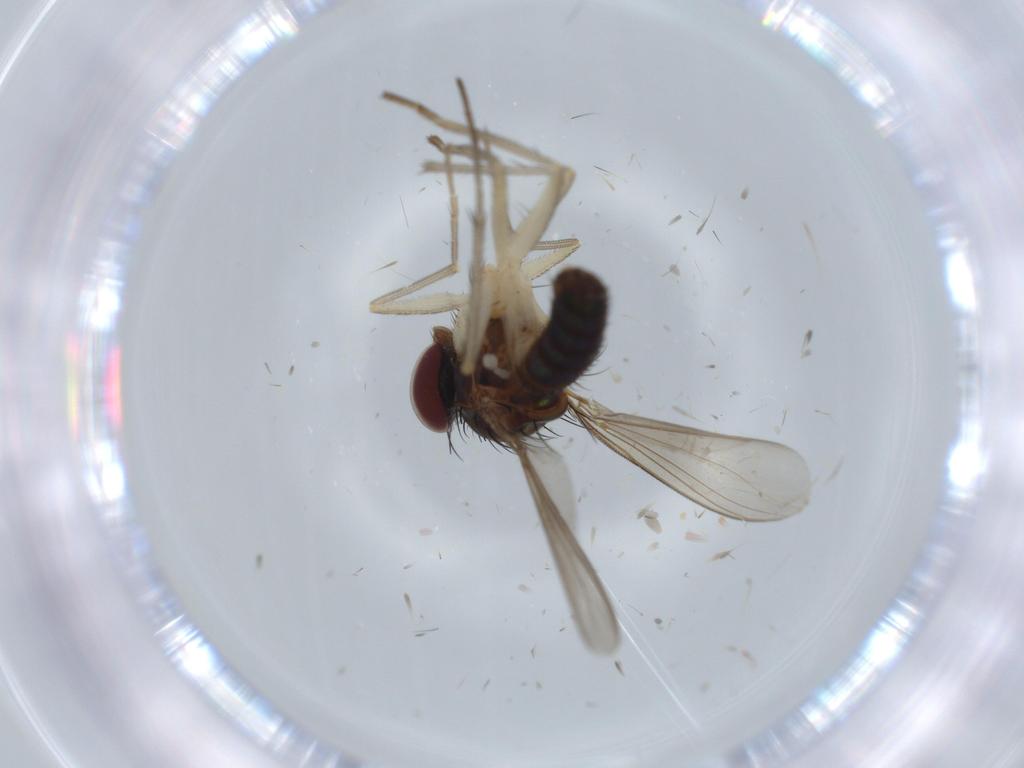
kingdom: Animalia
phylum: Arthropoda
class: Insecta
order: Diptera
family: Dolichopodidae
